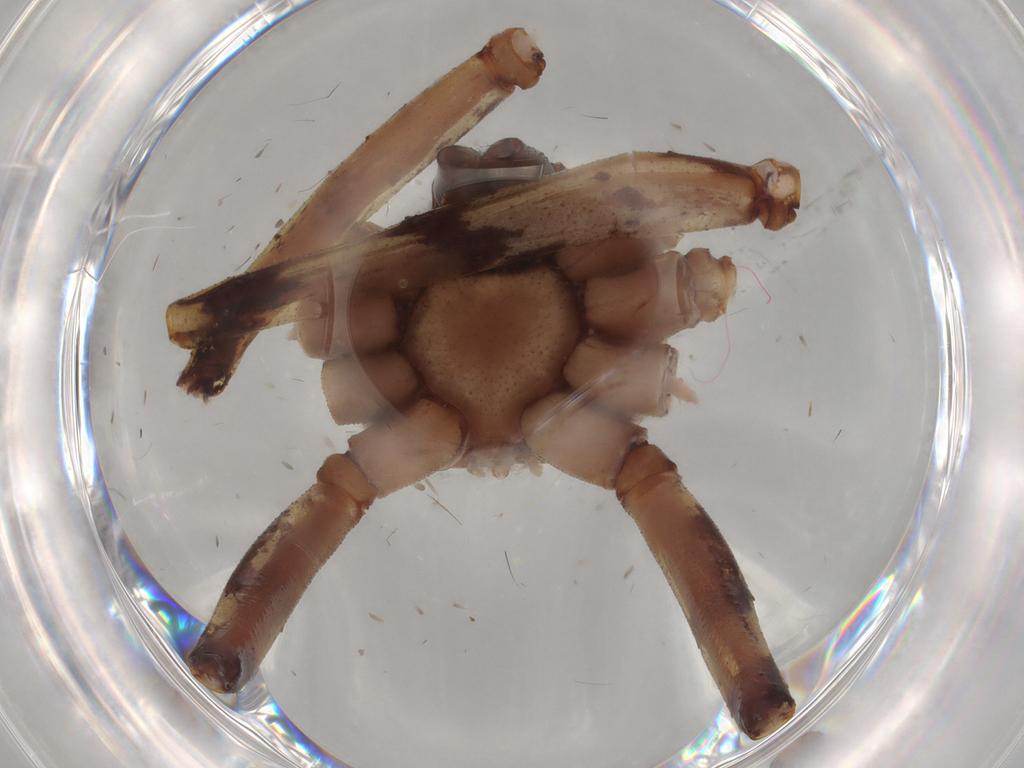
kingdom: Animalia
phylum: Arthropoda
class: Arachnida
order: Araneae
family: Philodromidae
